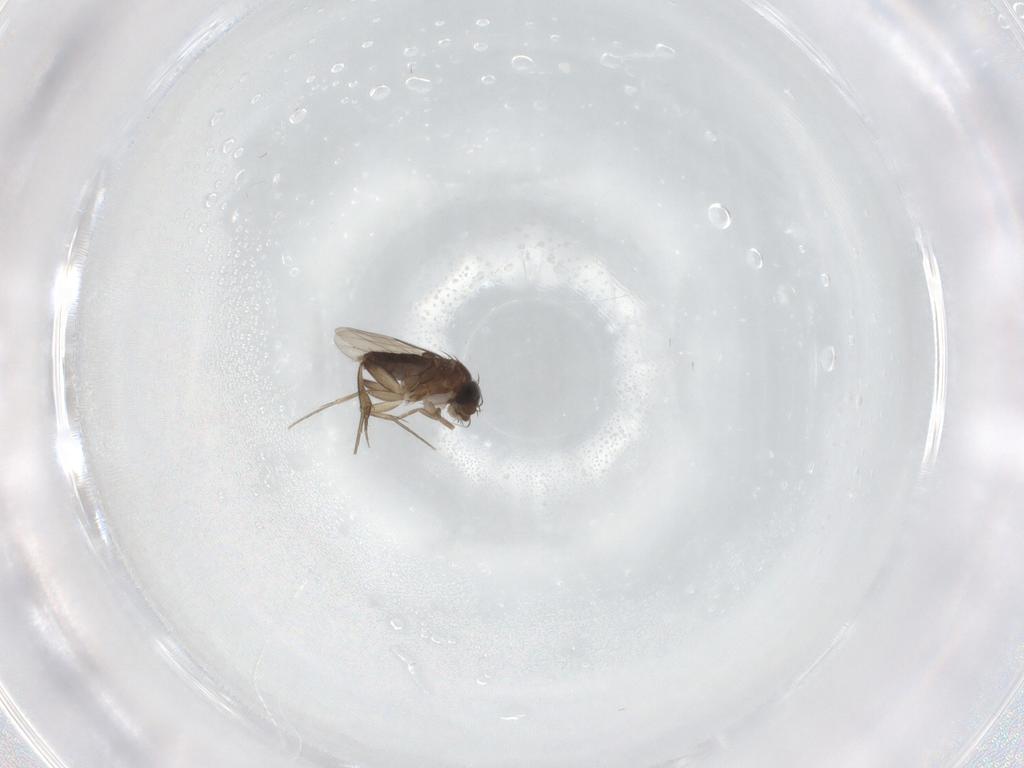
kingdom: Animalia
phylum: Arthropoda
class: Insecta
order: Diptera
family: Phoridae
